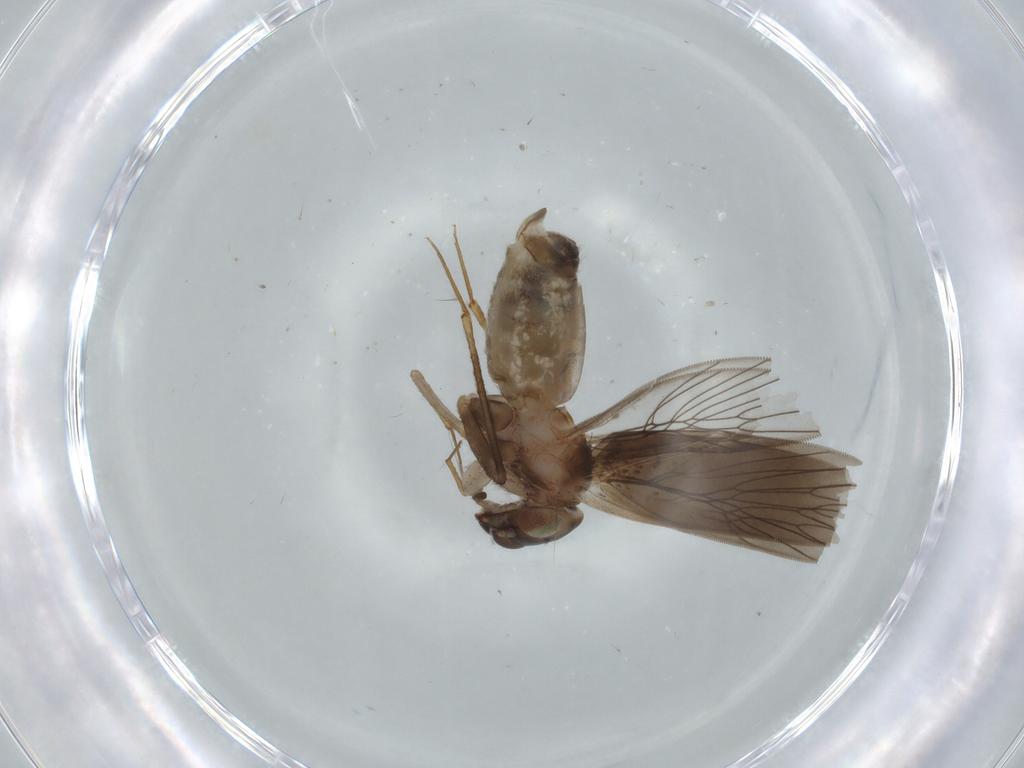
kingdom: Animalia
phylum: Arthropoda
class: Insecta
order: Psocodea
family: Lepidopsocidae
